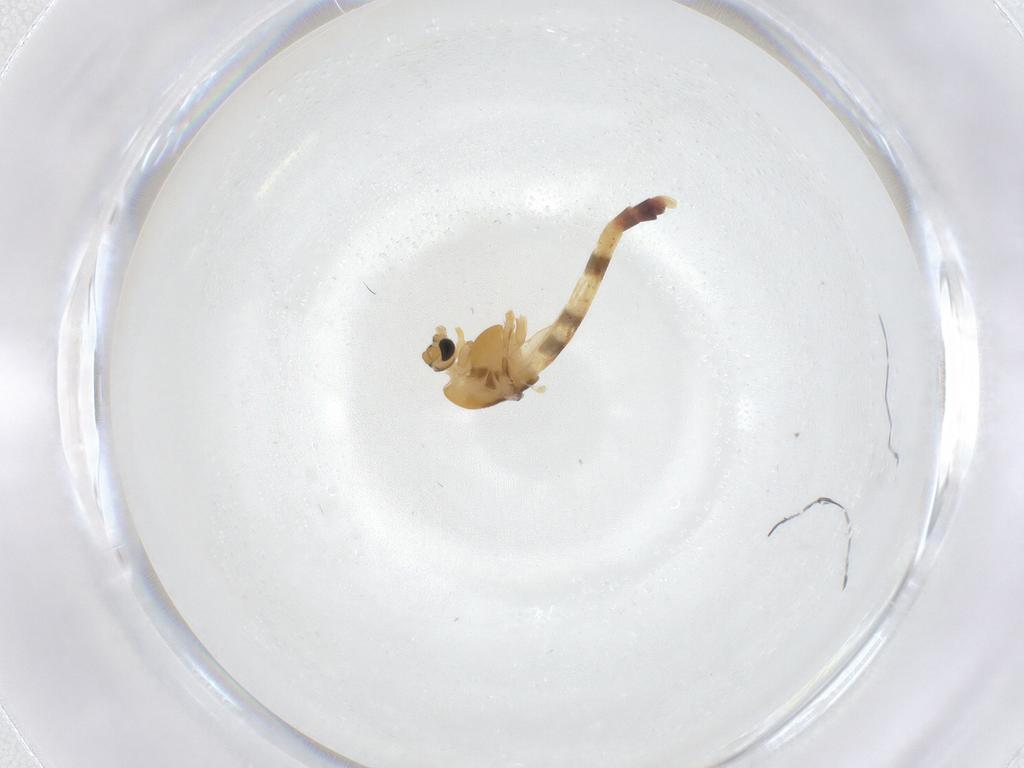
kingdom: Animalia
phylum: Arthropoda
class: Insecta
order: Diptera
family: Chironomidae
